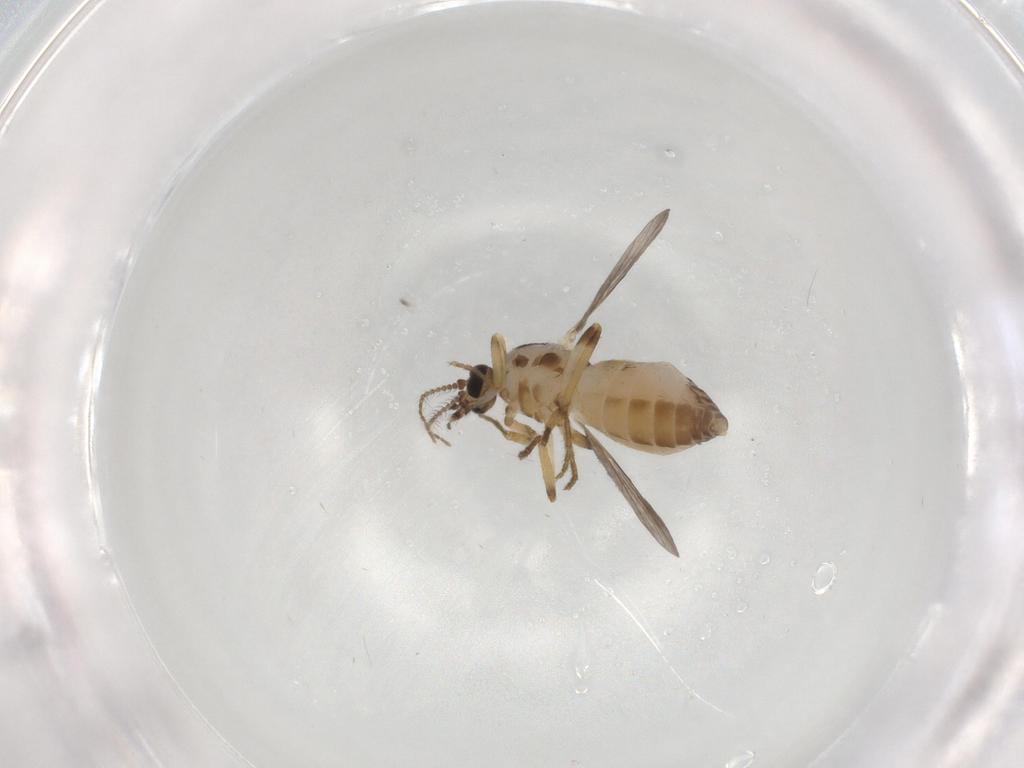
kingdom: Animalia
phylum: Arthropoda
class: Insecta
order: Diptera
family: Ceratopogonidae
